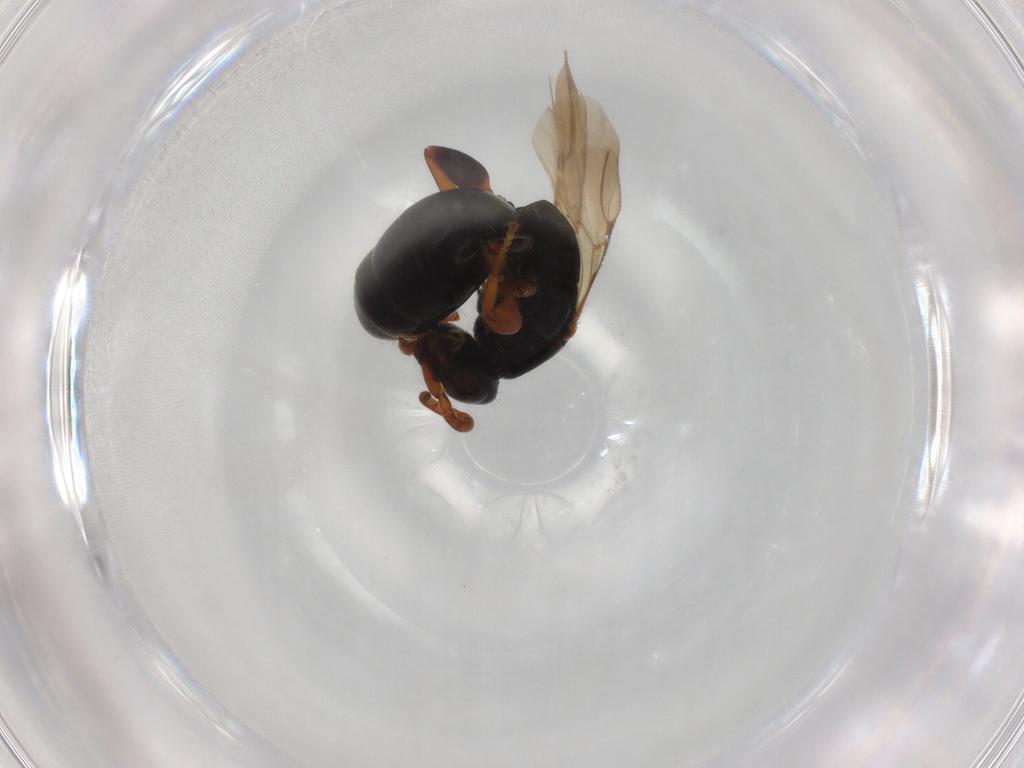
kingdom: Animalia
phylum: Arthropoda
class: Insecta
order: Hymenoptera
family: Bethylidae
